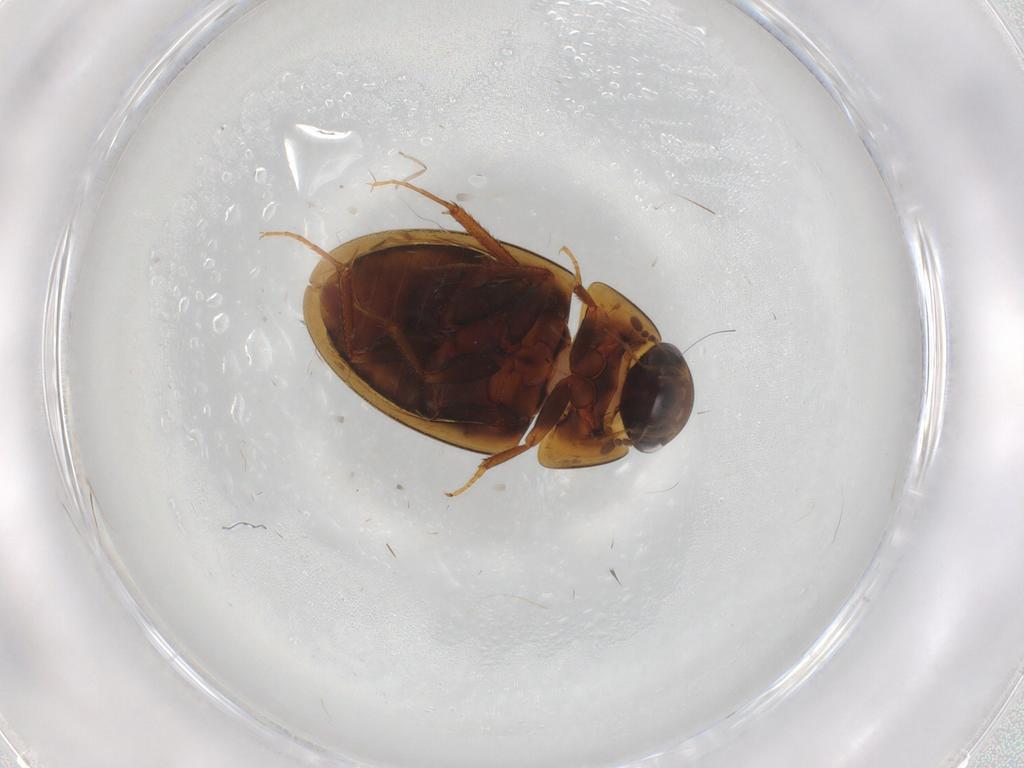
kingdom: Animalia
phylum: Arthropoda
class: Insecta
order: Coleoptera
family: Hydrophilidae
